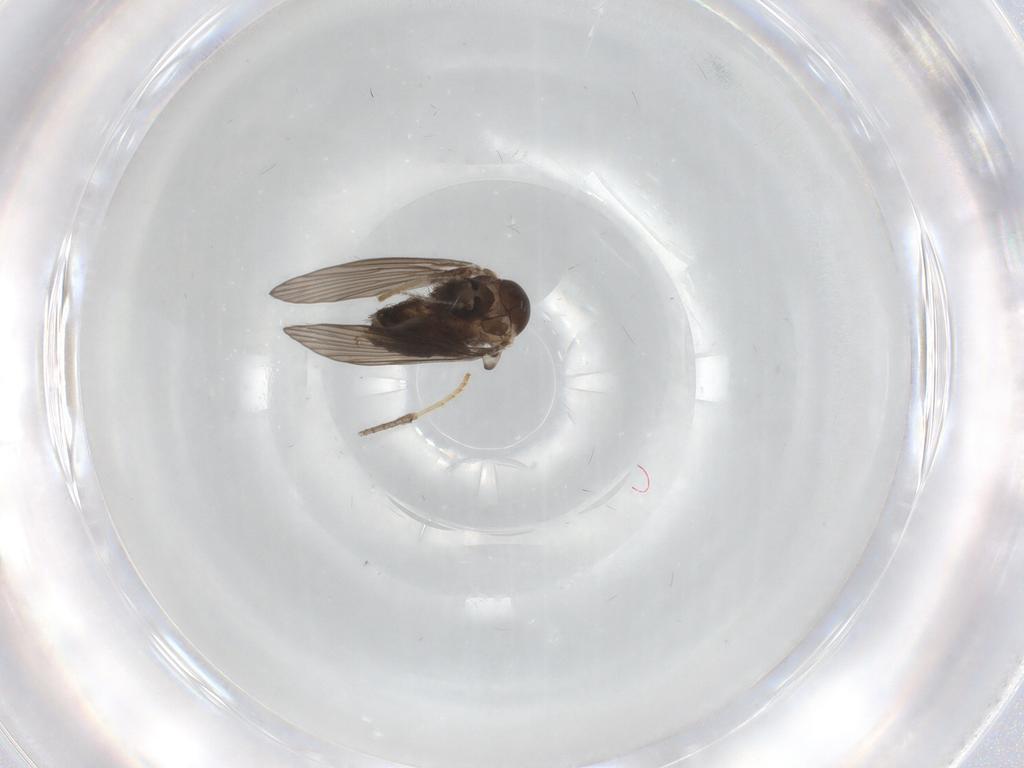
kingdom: Animalia
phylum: Arthropoda
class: Insecta
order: Diptera
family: Psychodidae
